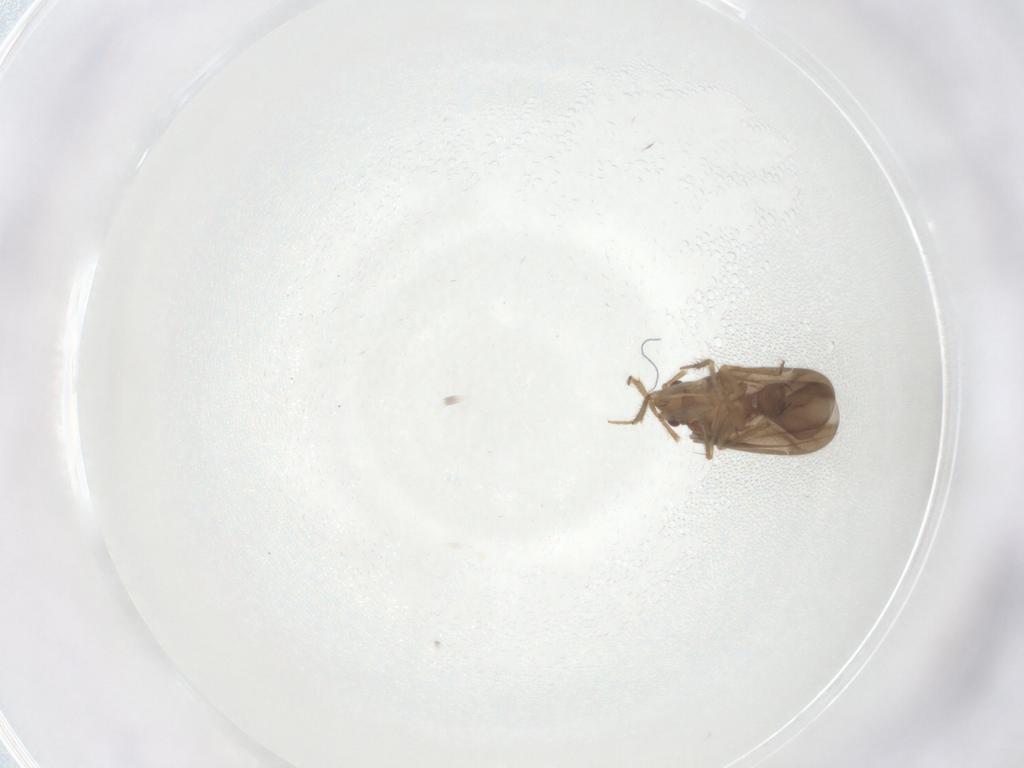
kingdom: Animalia
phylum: Arthropoda
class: Insecta
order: Hemiptera
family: Ceratocombidae
